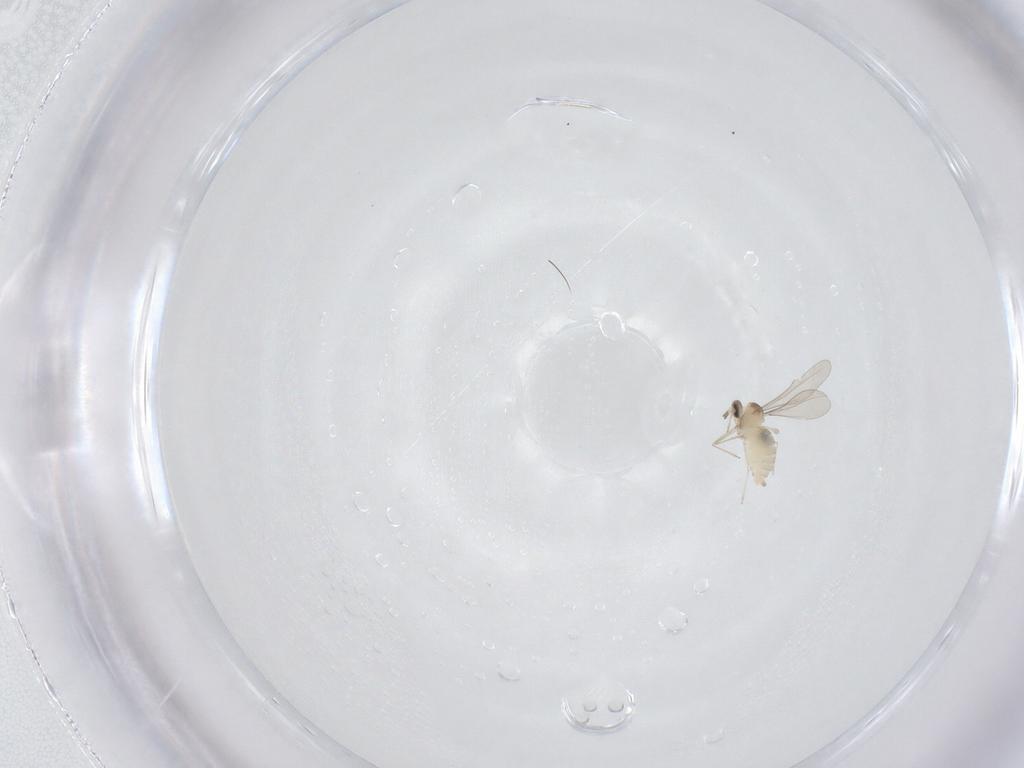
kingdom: Animalia
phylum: Arthropoda
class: Insecta
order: Diptera
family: Cecidomyiidae
